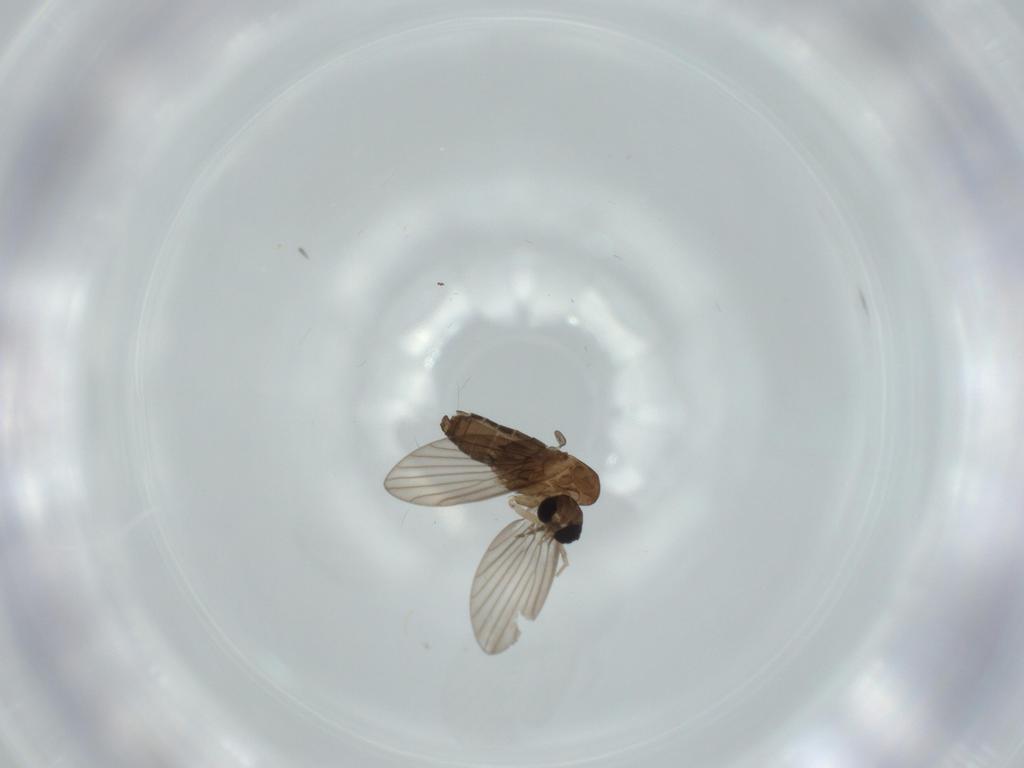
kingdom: Animalia
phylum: Arthropoda
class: Insecta
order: Diptera
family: Psychodidae
